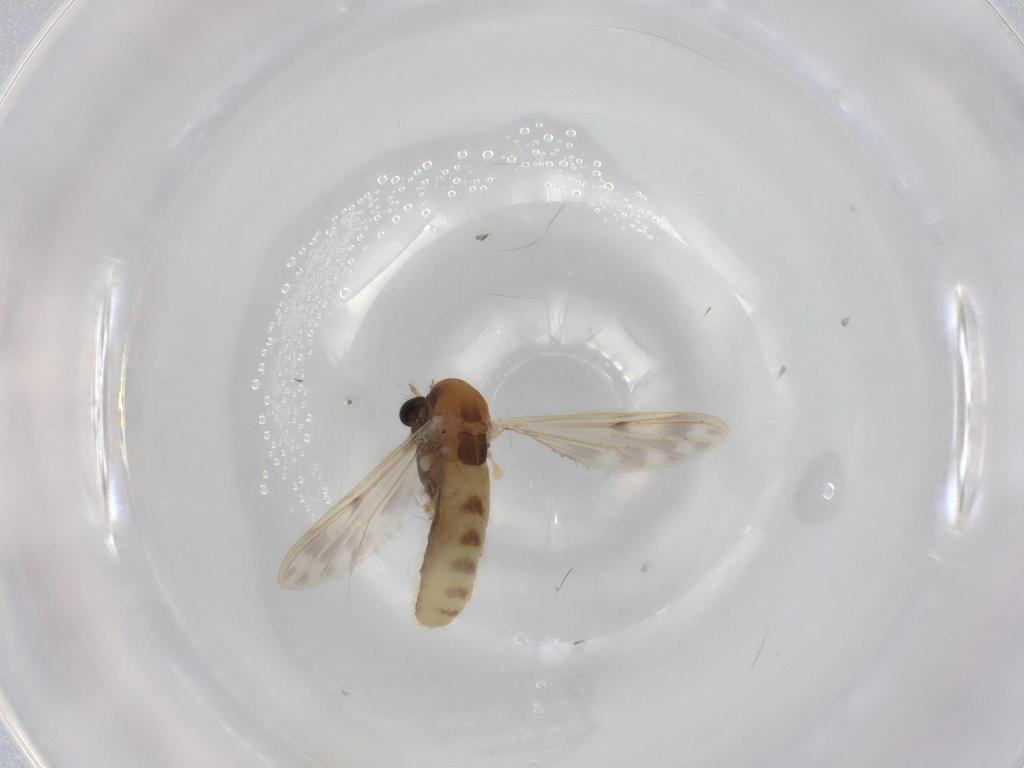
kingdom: Animalia
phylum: Arthropoda
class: Insecta
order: Diptera
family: Chironomidae
